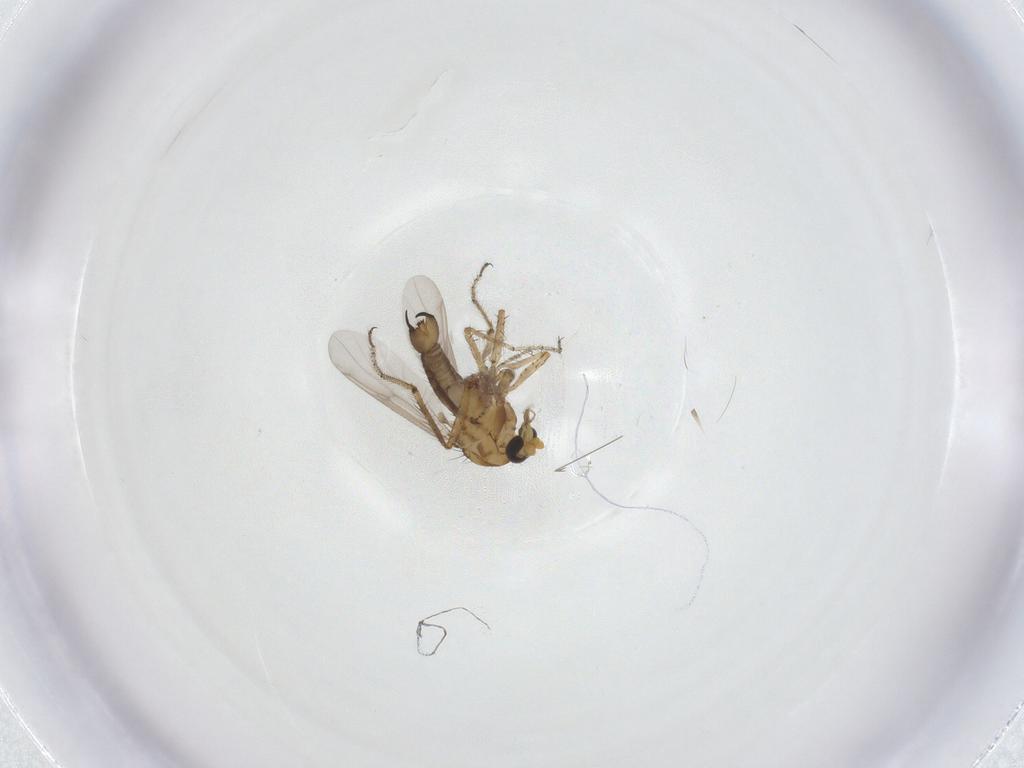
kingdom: Animalia
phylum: Arthropoda
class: Insecta
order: Diptera
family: Ceratopogonidae
